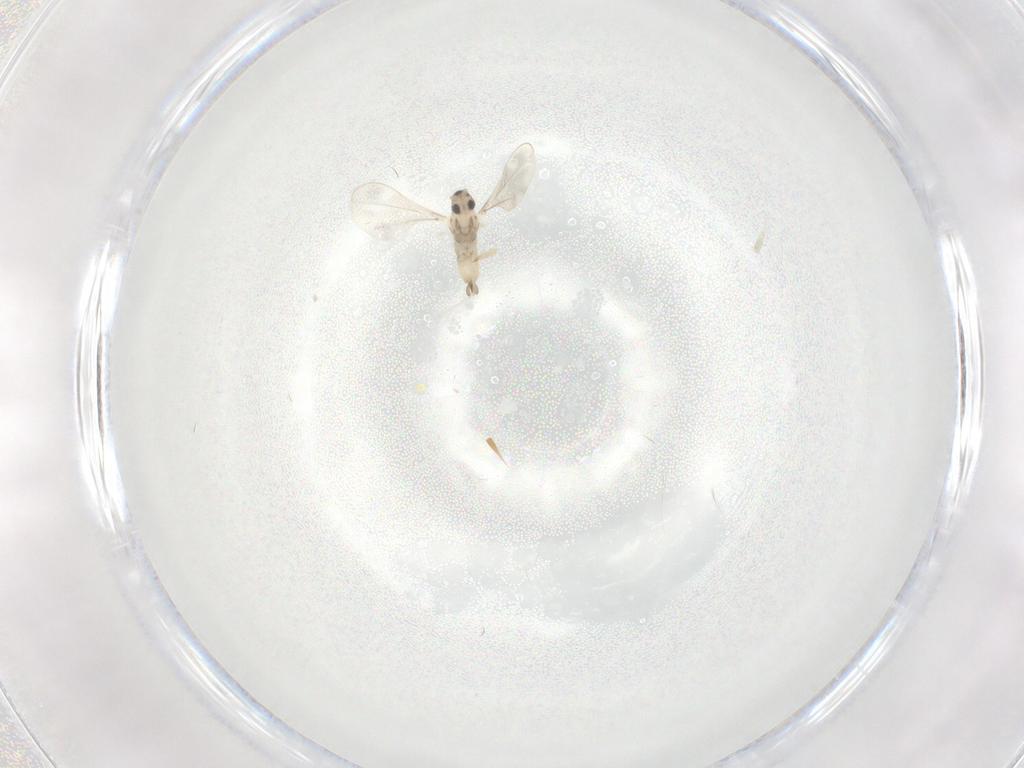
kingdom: Animalia
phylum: Arthropoda
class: Insecta
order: Diptera
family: Cecidomyiidae
